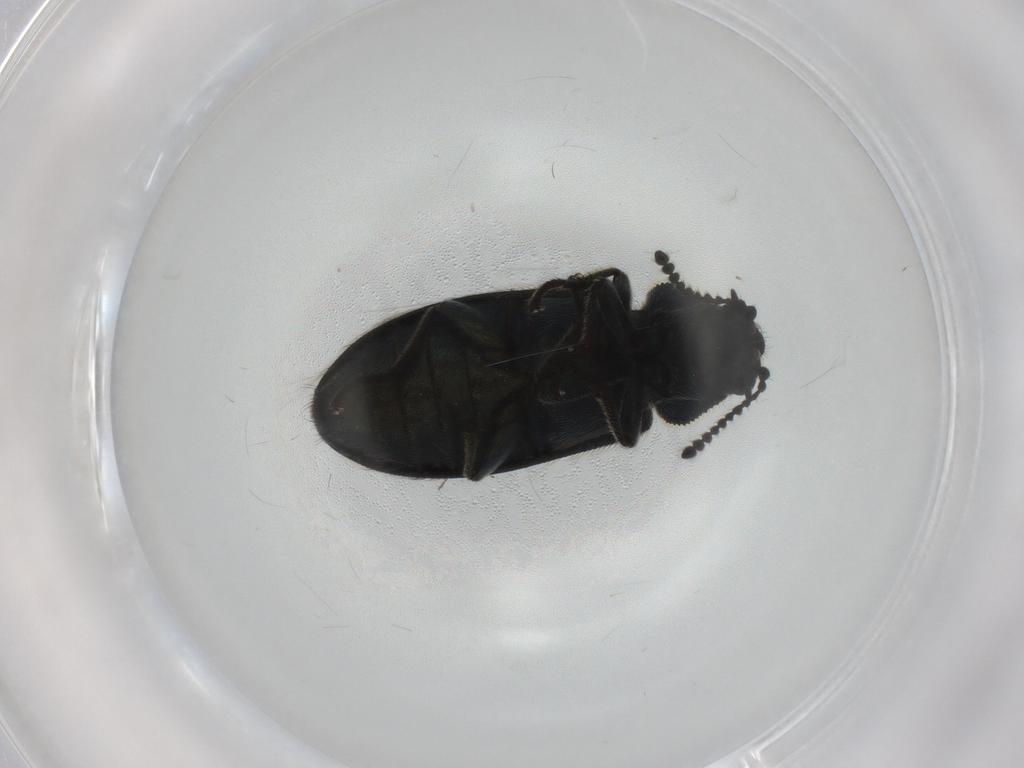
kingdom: Animalia
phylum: Arthropoda
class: Insecta
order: Coleoptera
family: Melyridae
